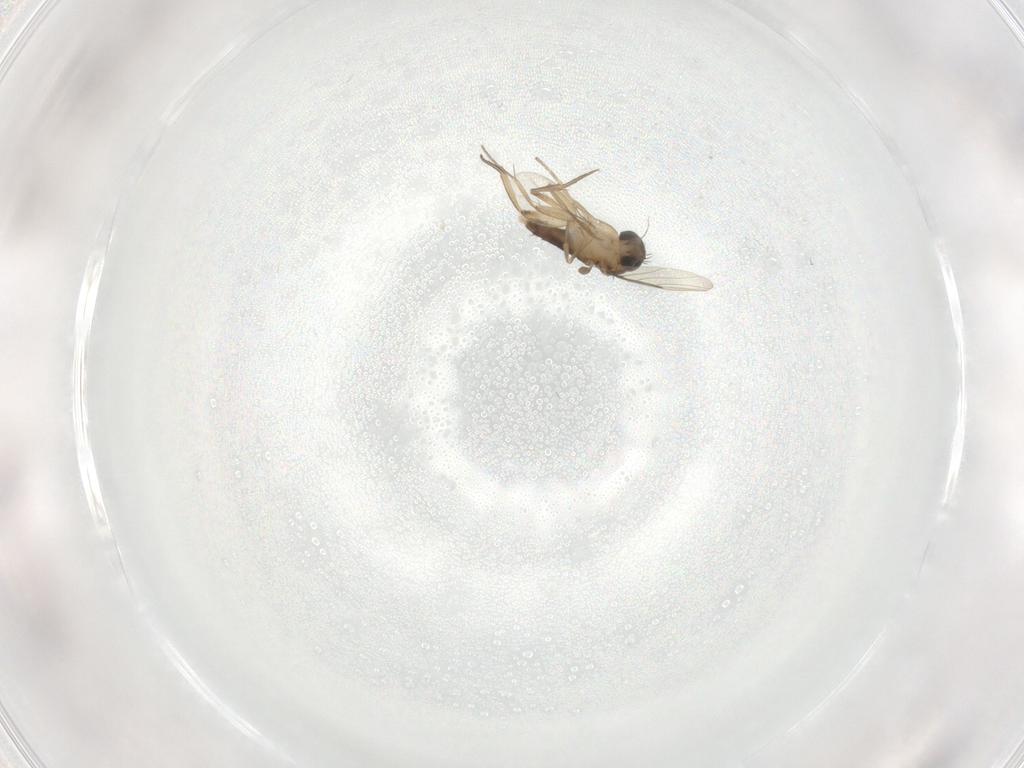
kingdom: Animalia
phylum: Arthropoda
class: Insecta
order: Diptera
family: Phoridae
